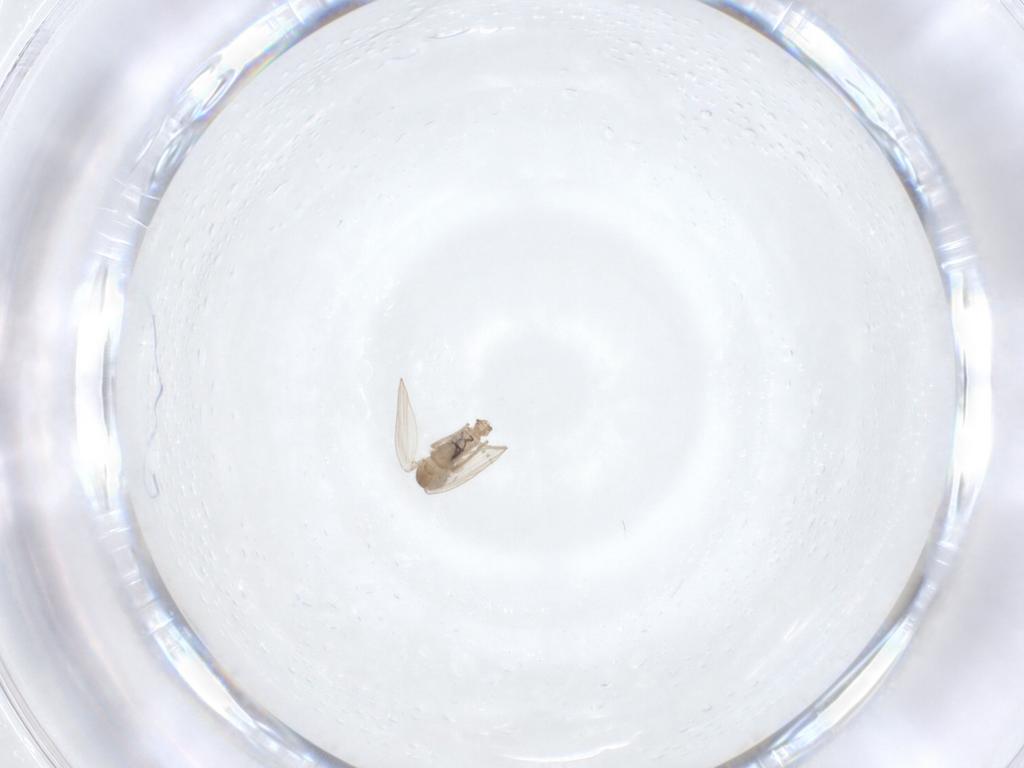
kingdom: Animalia
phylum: Arthropoda
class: Insecta
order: Diptera
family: Psychodidae
